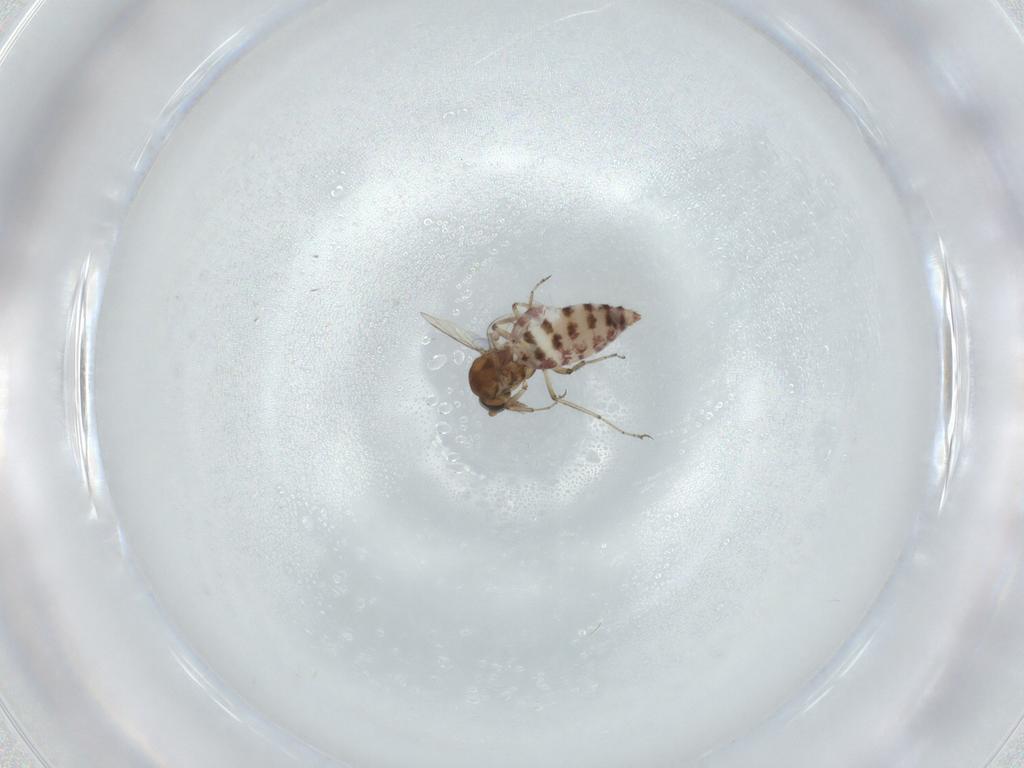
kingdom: Animalia
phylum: Arthropoda
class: Insecta
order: Diptera
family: Ceratopogonidae
